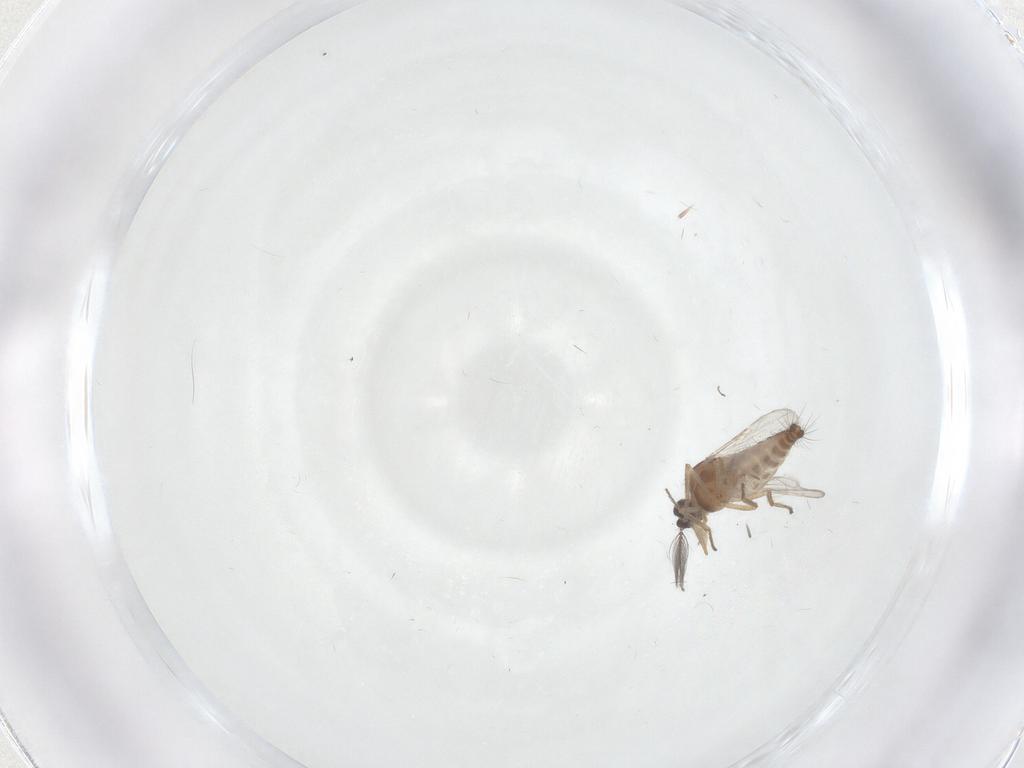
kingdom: Animalia
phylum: Arthropoda
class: Insecta
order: Diptera
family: Ceratopogonidae
